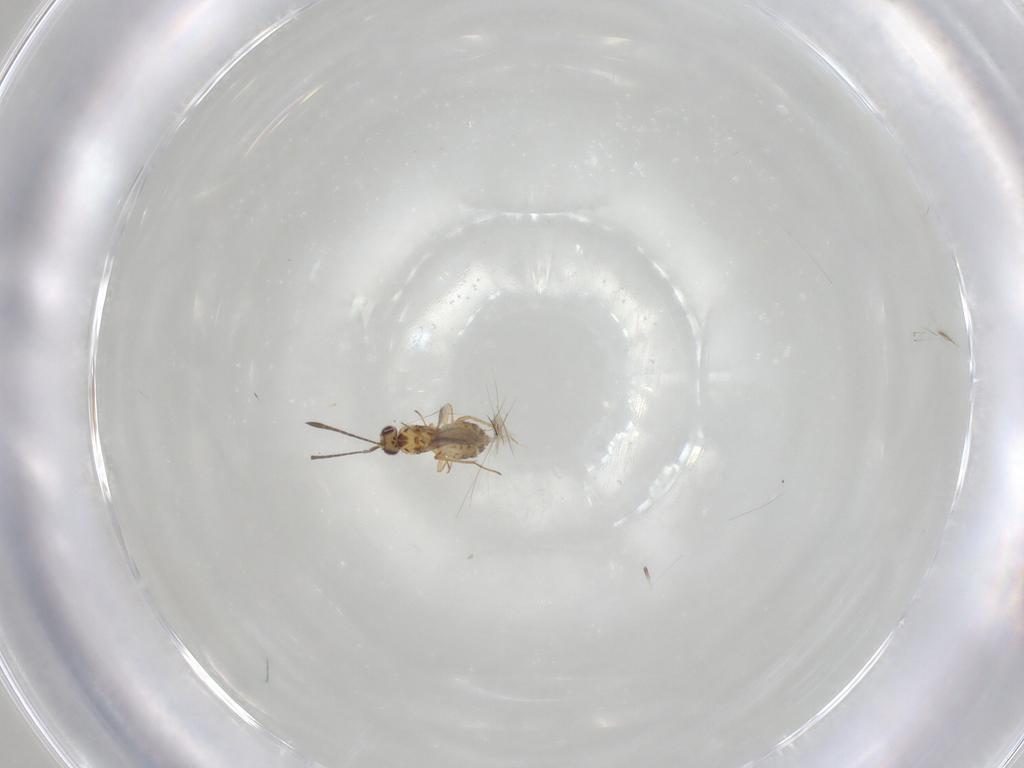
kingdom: Animalia
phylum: Arthropoda
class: Insecta
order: Hymenoptera
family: Mymaridae
